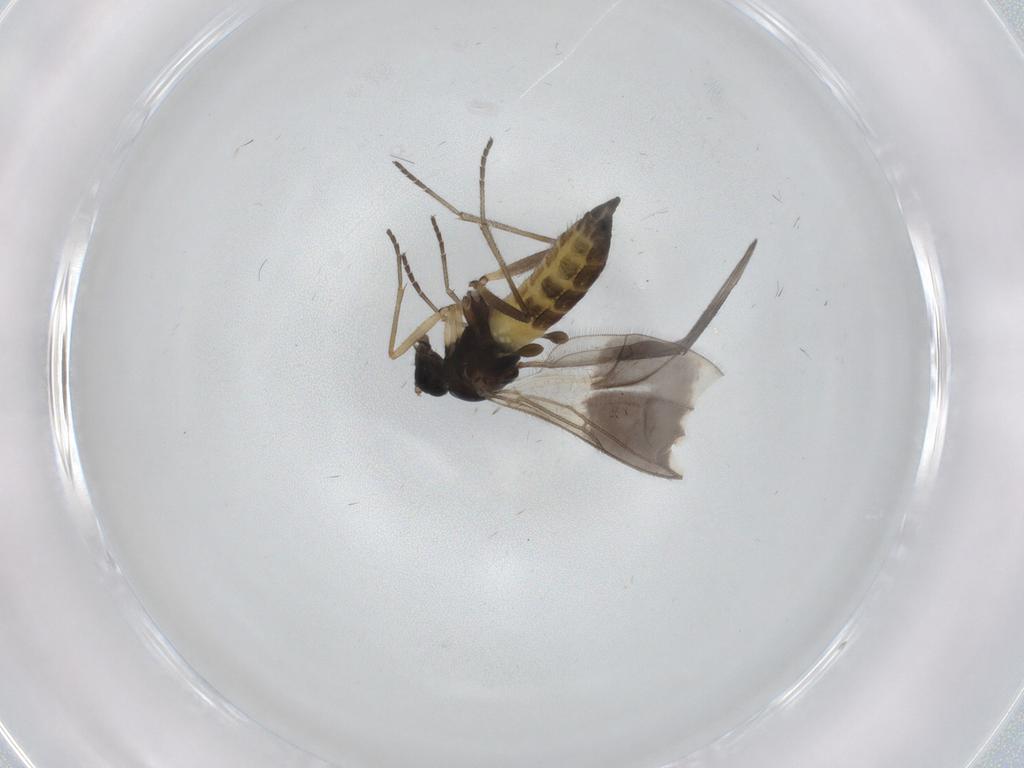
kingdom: Animalia
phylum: Arthropoda
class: Insecta
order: Diptera
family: Sciaridae
